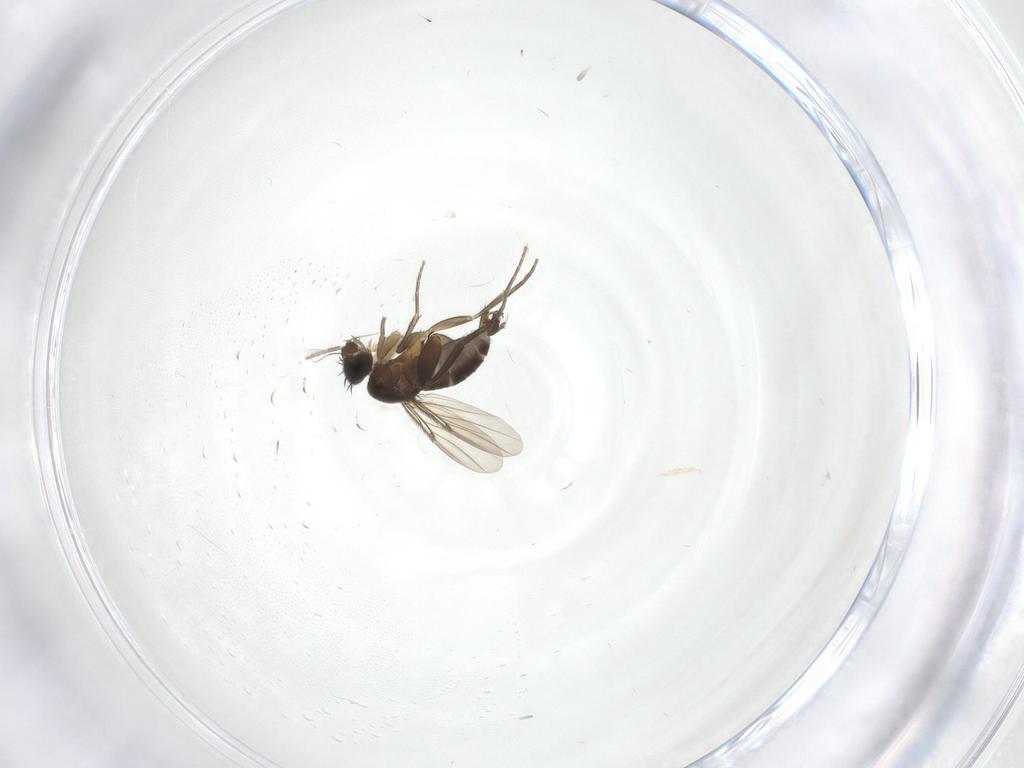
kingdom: Animalia
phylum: Arthropoda
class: Insecta
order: Diptera
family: Phoridae
